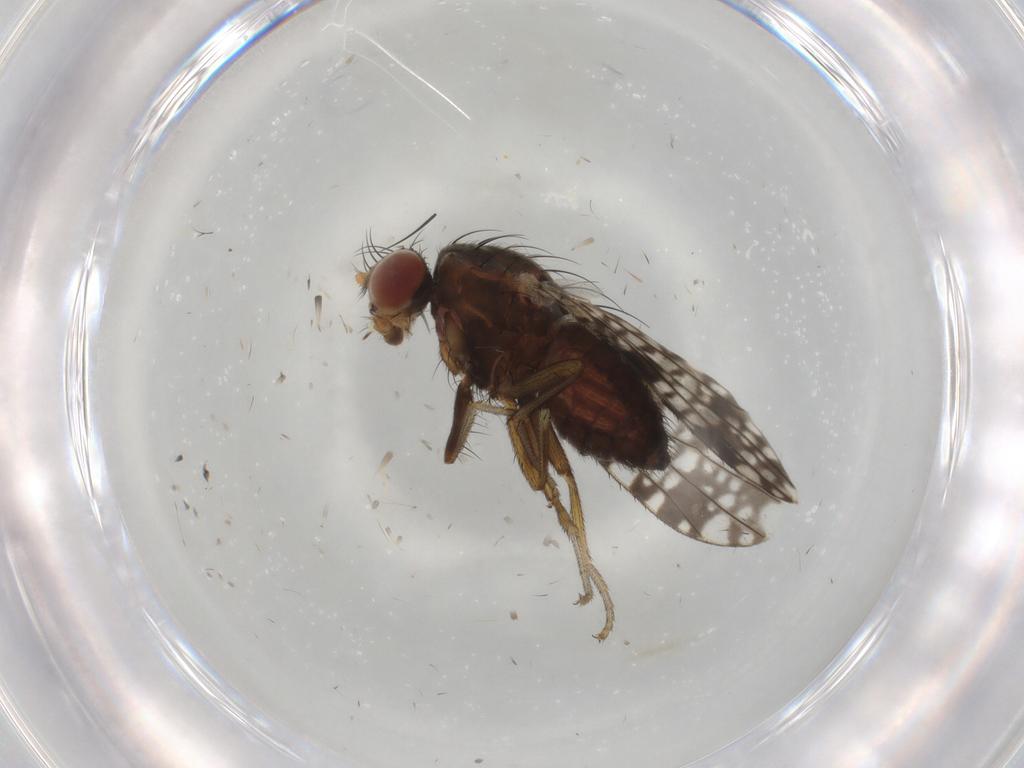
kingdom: Animalia
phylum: Arthropoda
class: Insecta
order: Diptera
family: Tephritidae
